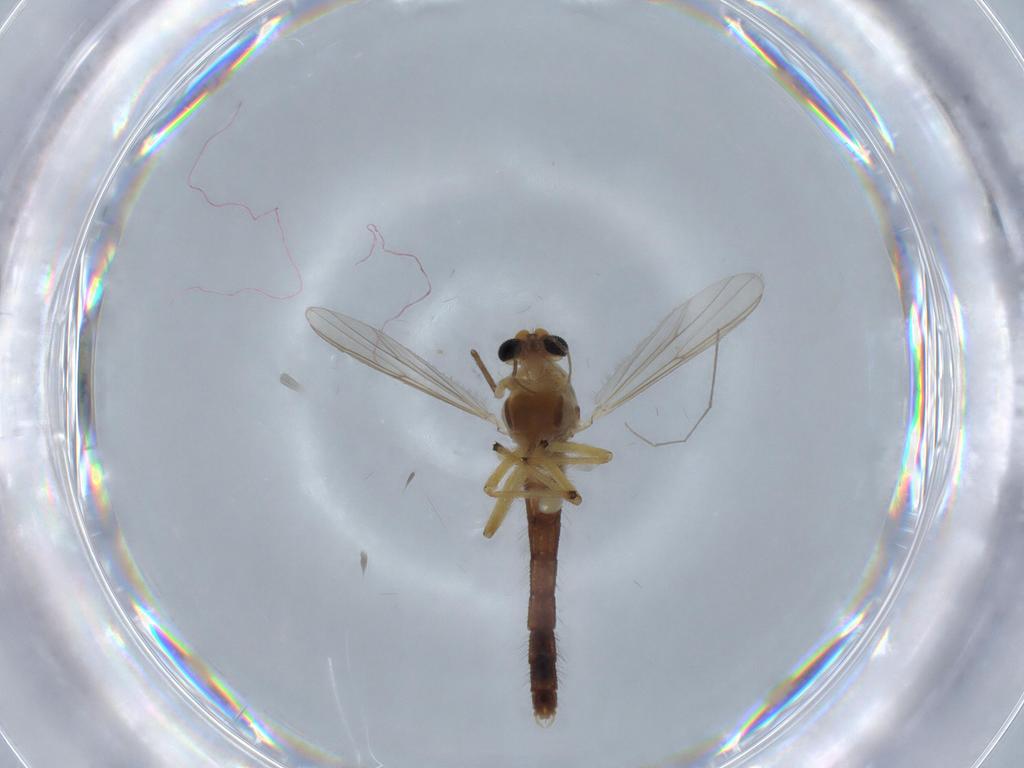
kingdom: Animalia
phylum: Arthropoda
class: Insecta
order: Diptera
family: Chironomidae
